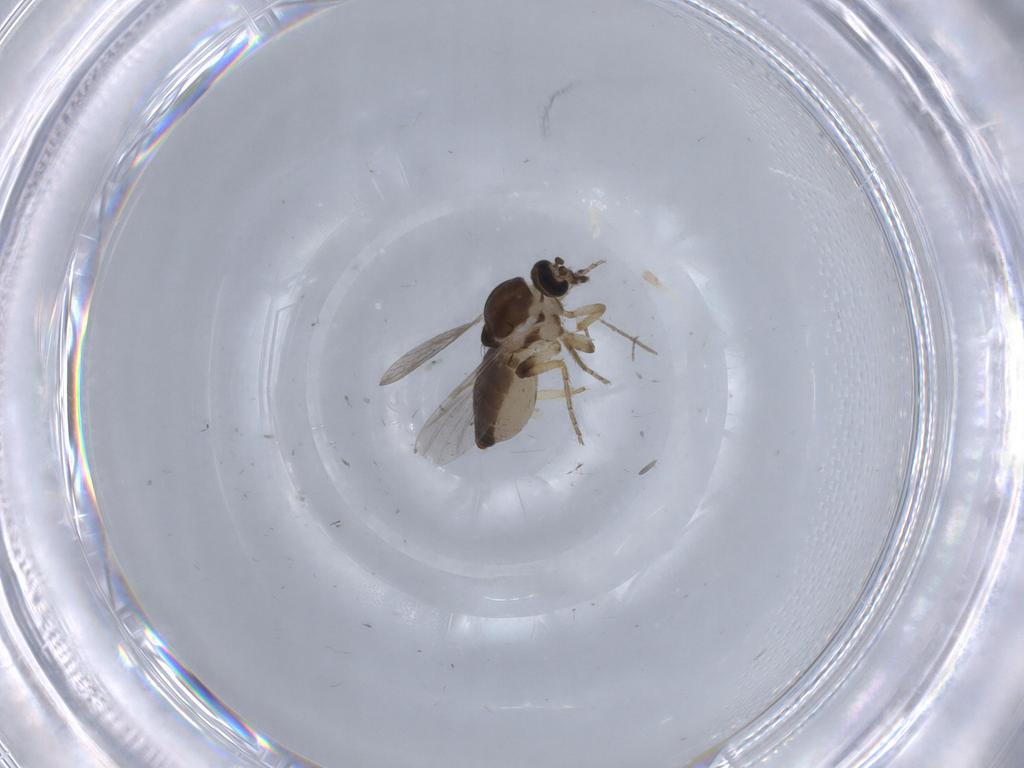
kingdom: Animalia
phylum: Arthropoda
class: Insecta
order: Diptera
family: Ceratopogonidae
